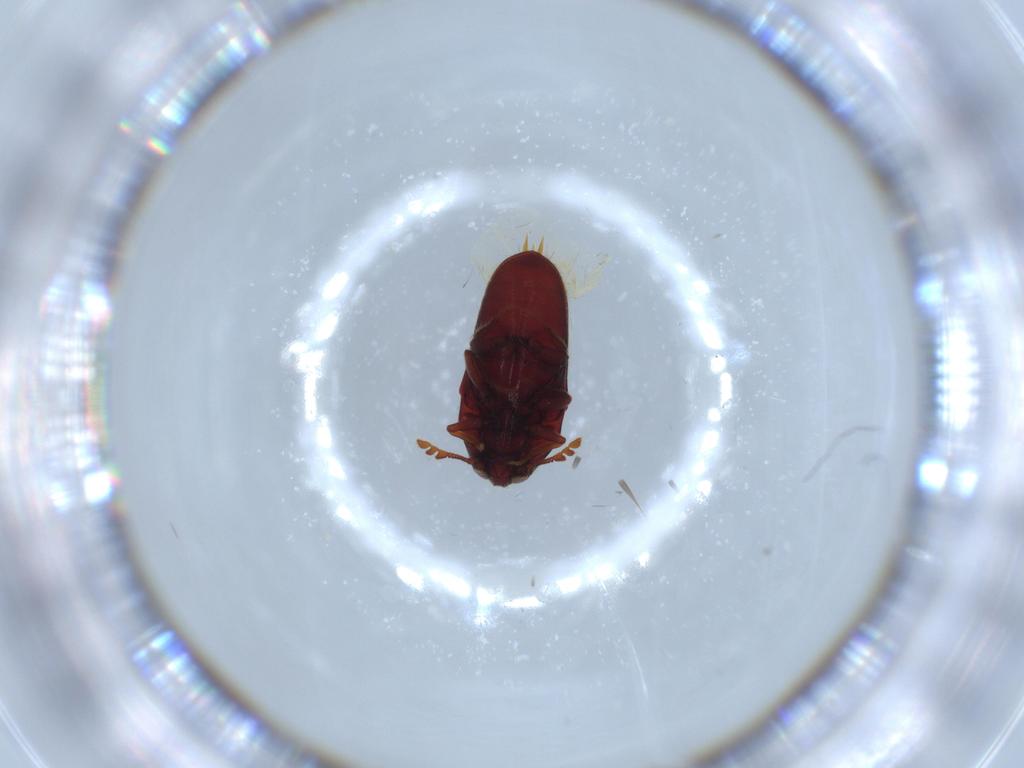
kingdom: Animalia
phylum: Arthropoda
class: Insecta
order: Coleoptera
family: Throscidae
